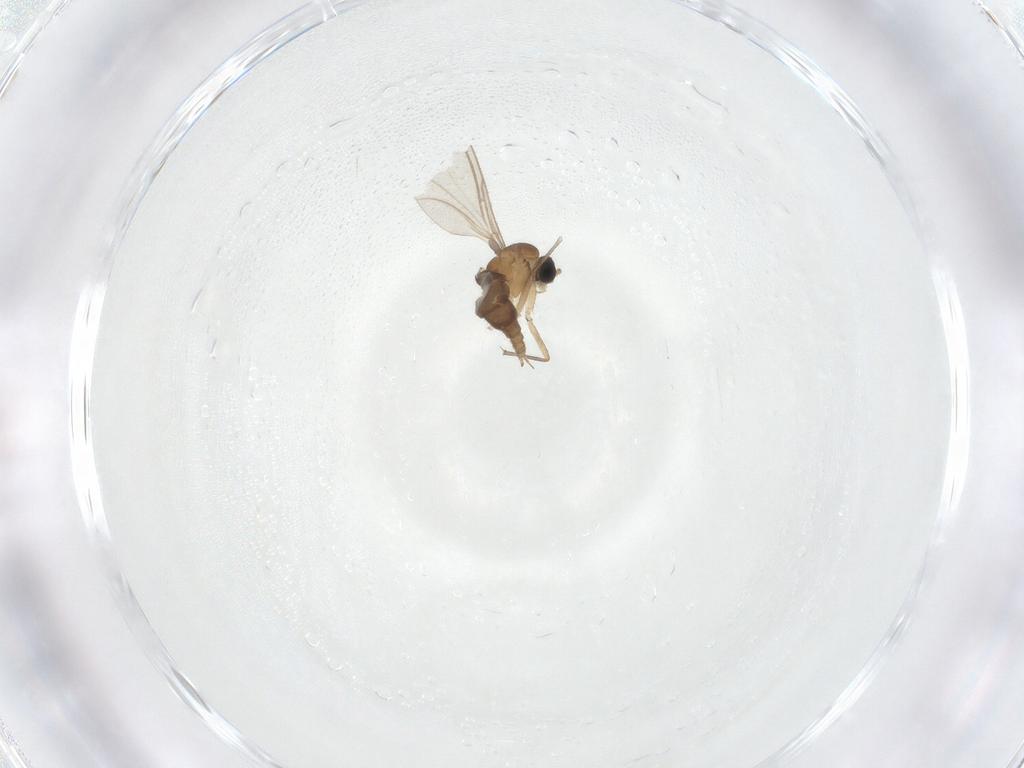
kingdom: Animalia
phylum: Arthropoda
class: Insecta
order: Diptera
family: Sciaridae
